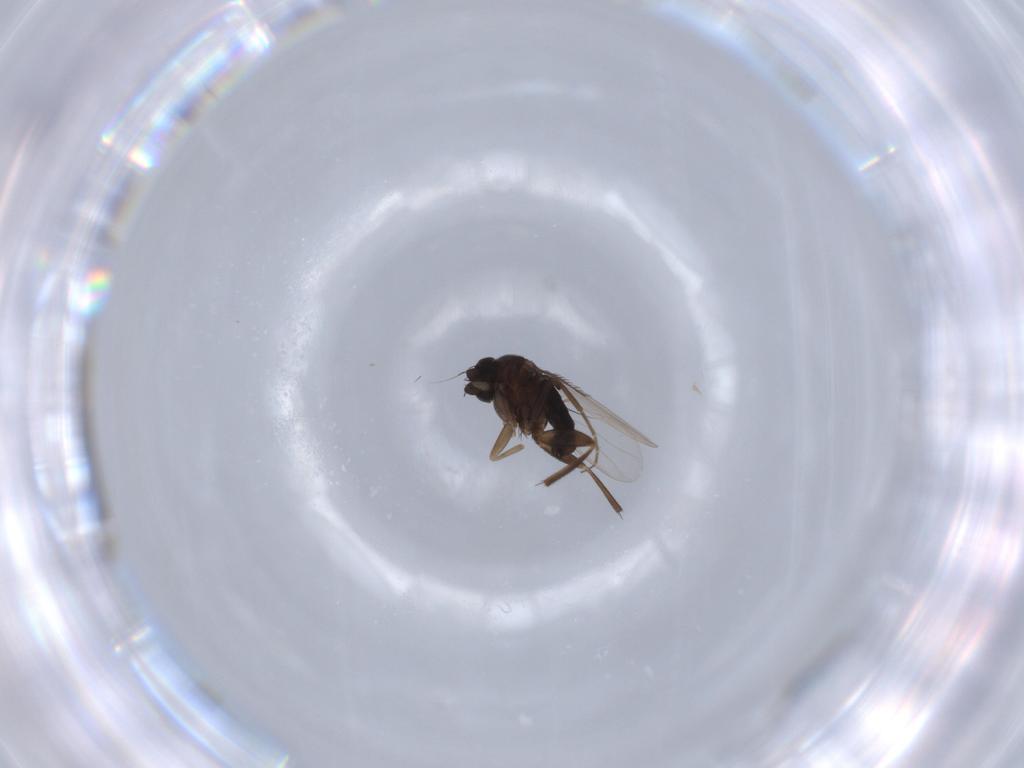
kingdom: Animalia
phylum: Arthropoda
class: Insecta
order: Diptera
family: Phoridae
